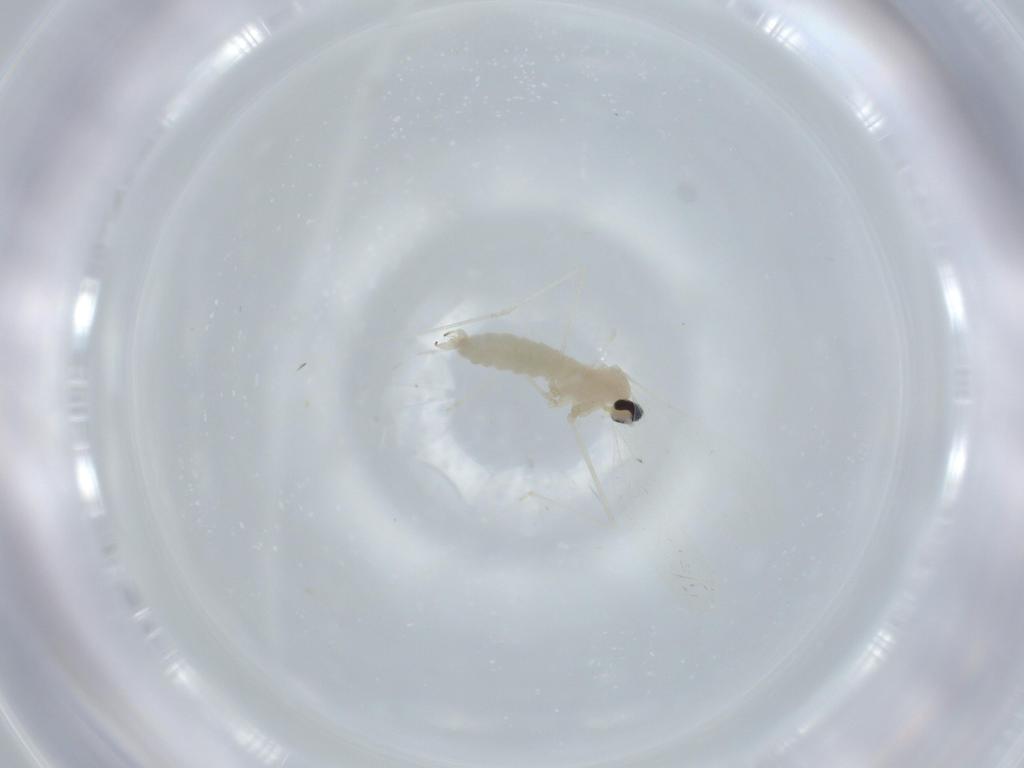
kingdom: Animalia
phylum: Arthropoda
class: Insecta
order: Diptera
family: Cecidomyiidae
